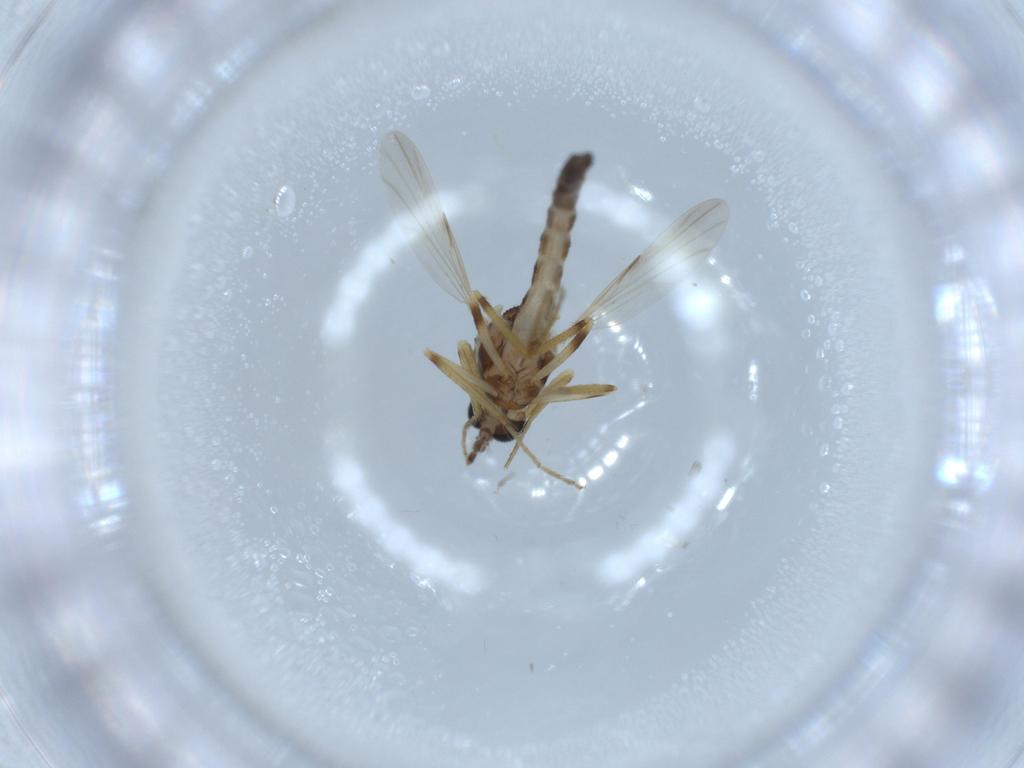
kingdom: Animalia
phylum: Arthropoda
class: Insecta
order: Diptera
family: Ceratopogonidae
